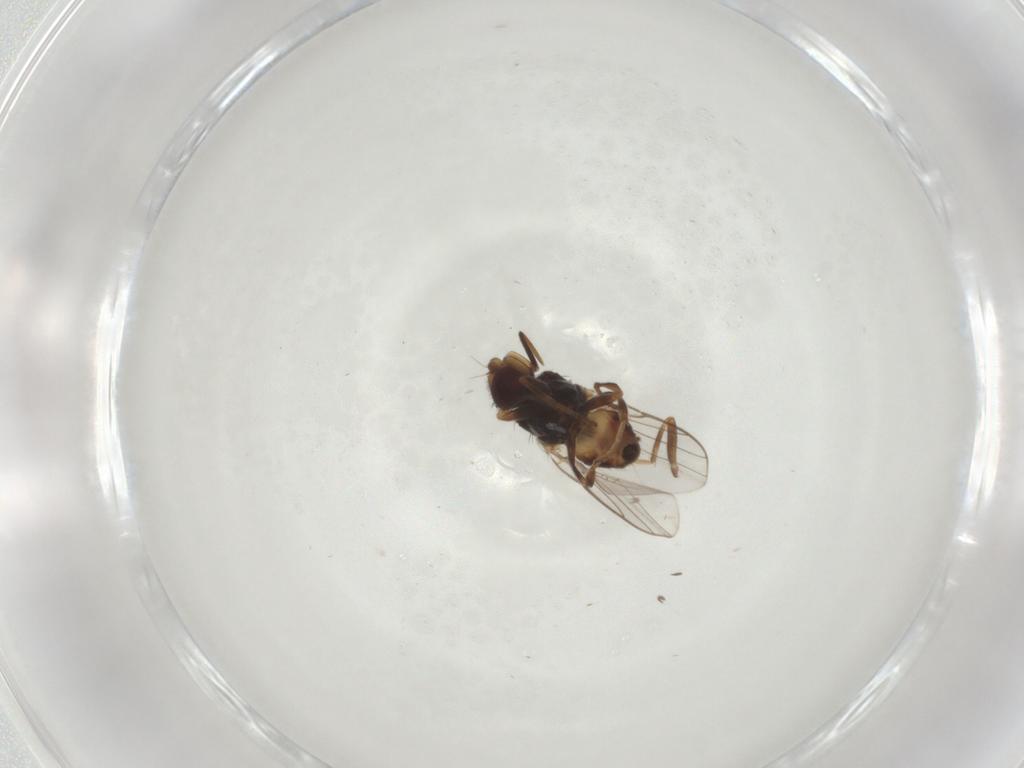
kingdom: Animalia
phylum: Arthropoda
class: Insecta
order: Diptera
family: Chloropidae
